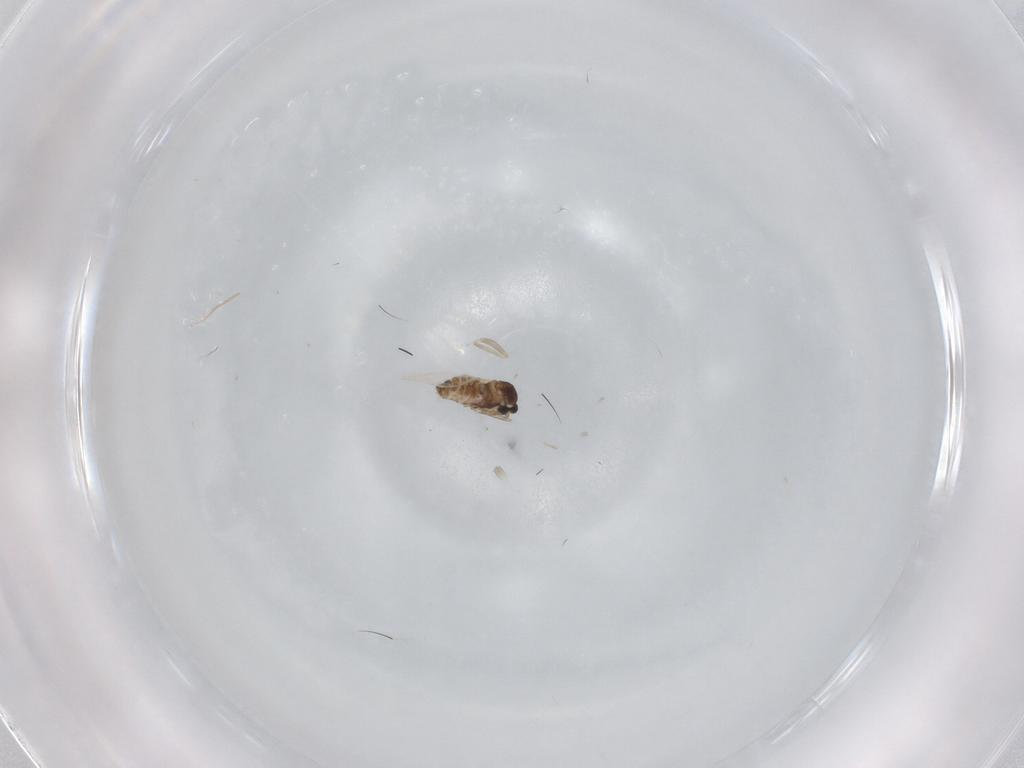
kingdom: Animalia
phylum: Arthropoda
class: Insecta
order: Diptera
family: Cecidomyiidae
